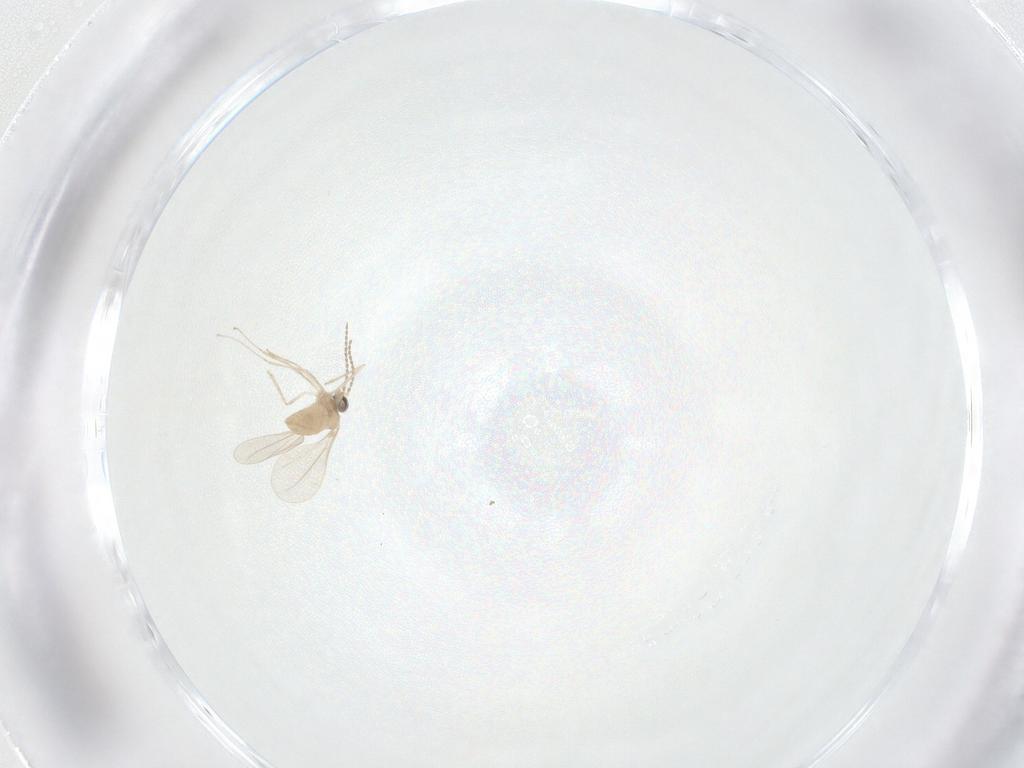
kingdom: Animalia
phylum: Arthropoda
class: Insecta
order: Diptera
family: Cecidomyiidae
